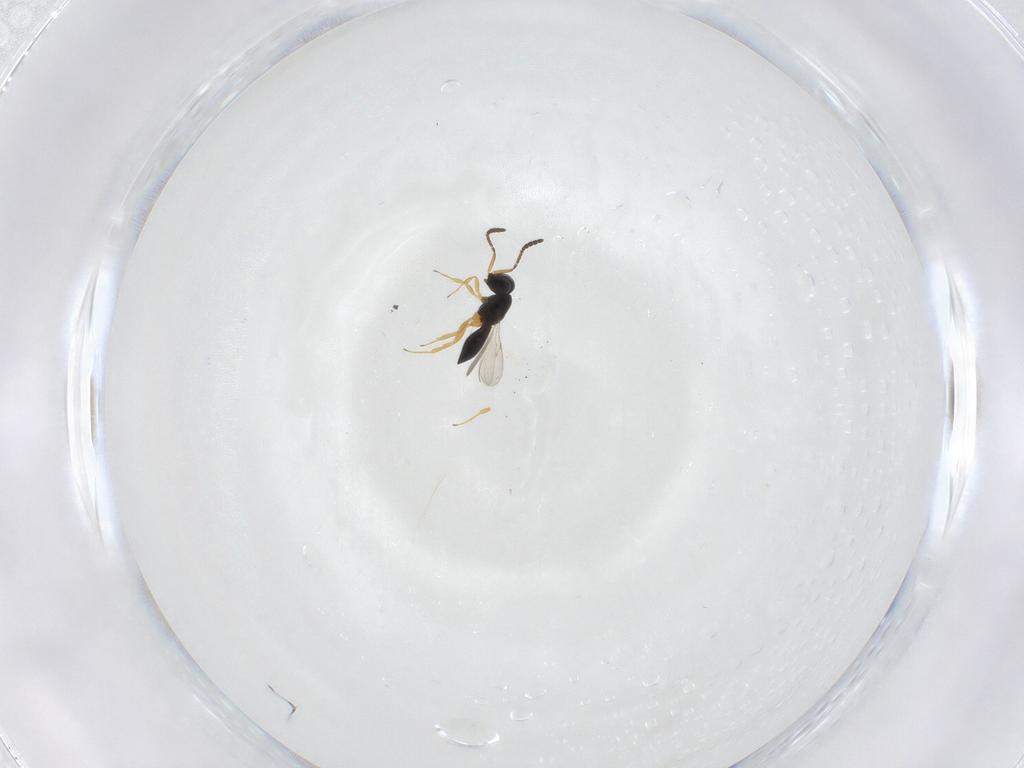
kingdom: Animalia
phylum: Arthropoda
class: Insecta
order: Hymenoptera
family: Scelionidae
